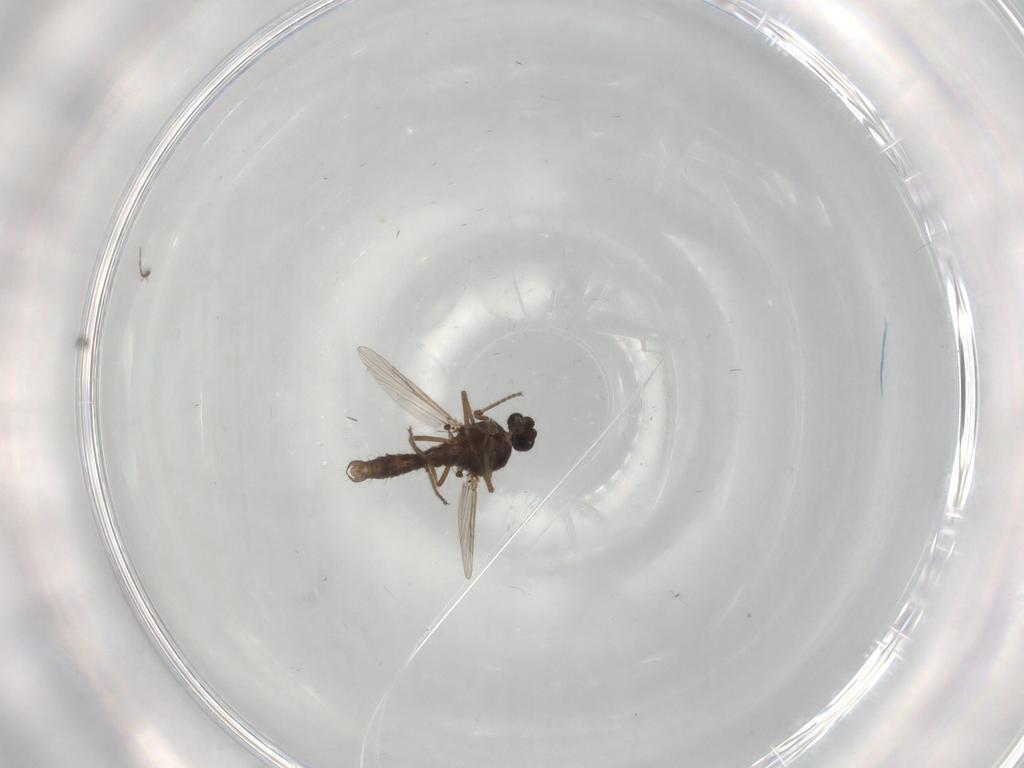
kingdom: Animalia
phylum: Arthropoda
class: Insecta
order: Diptera
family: Ceratopogonidae
